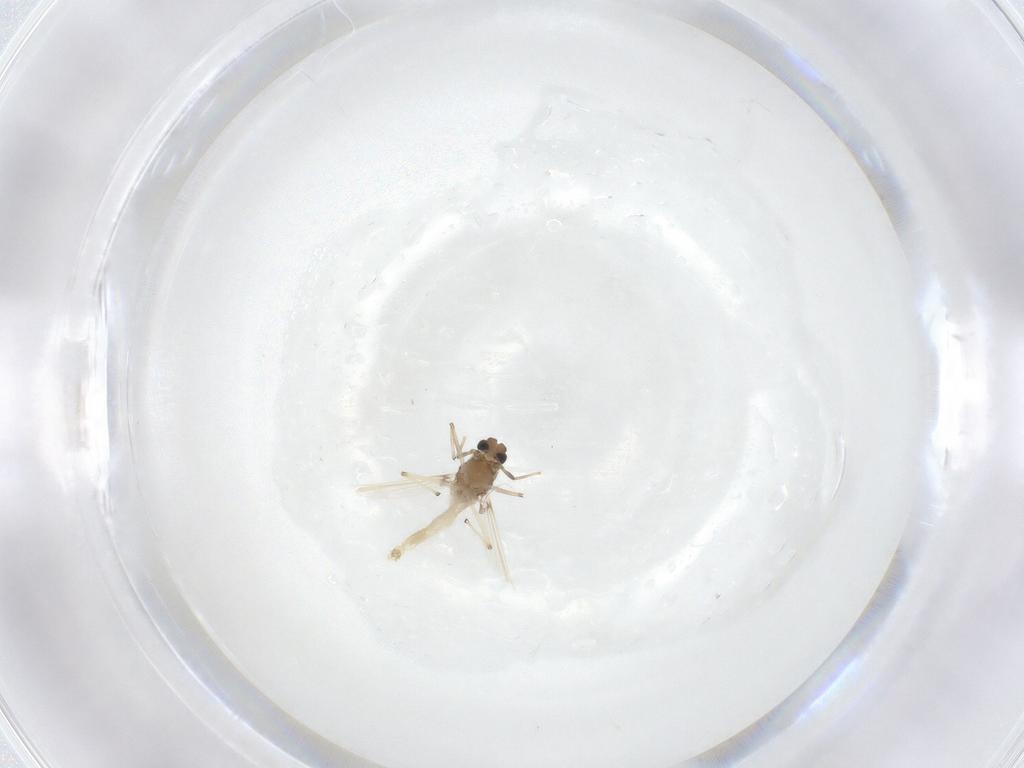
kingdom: Animalia
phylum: Arthropoda
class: Insecta
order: Diptera
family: Chironomidae
